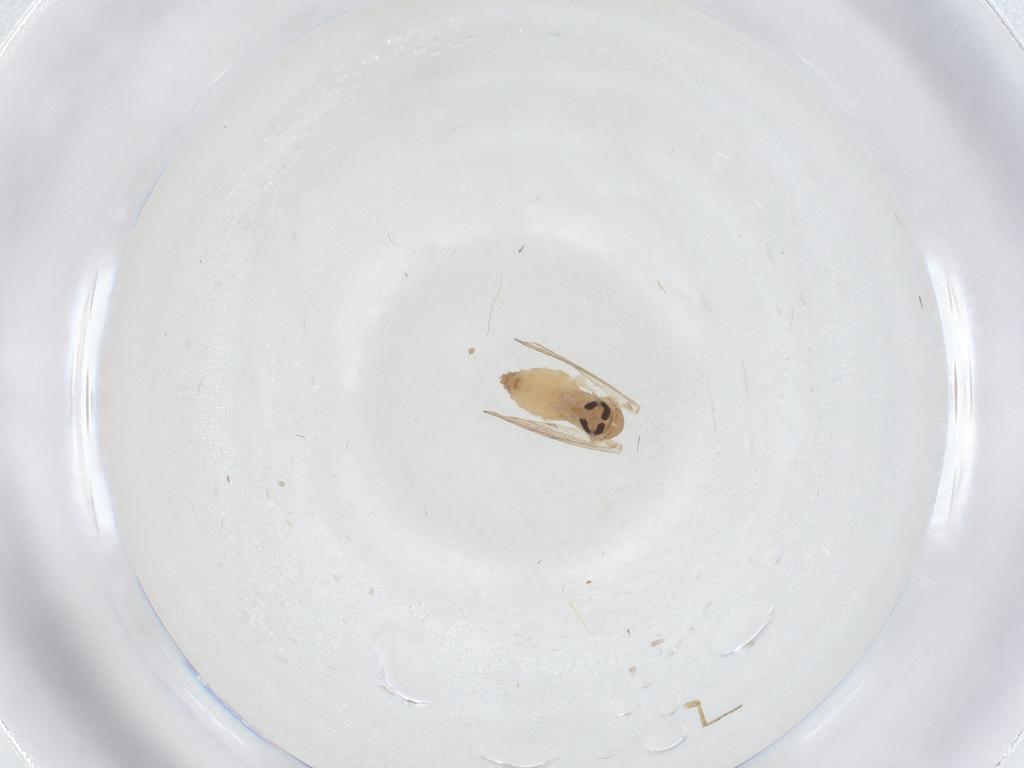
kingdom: Animalia
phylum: Arthropoda
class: Insecta
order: Diptera
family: Psychodidae
